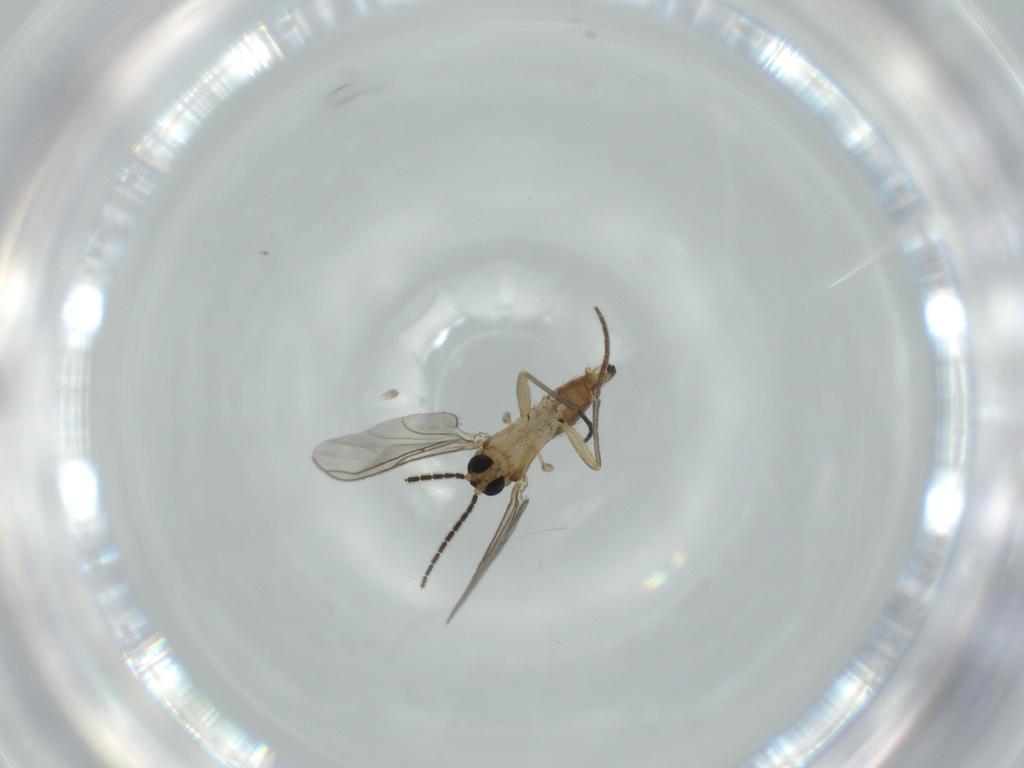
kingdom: Animalia
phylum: Arthropoda
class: Insecta
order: Diptera
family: Sciaridae
